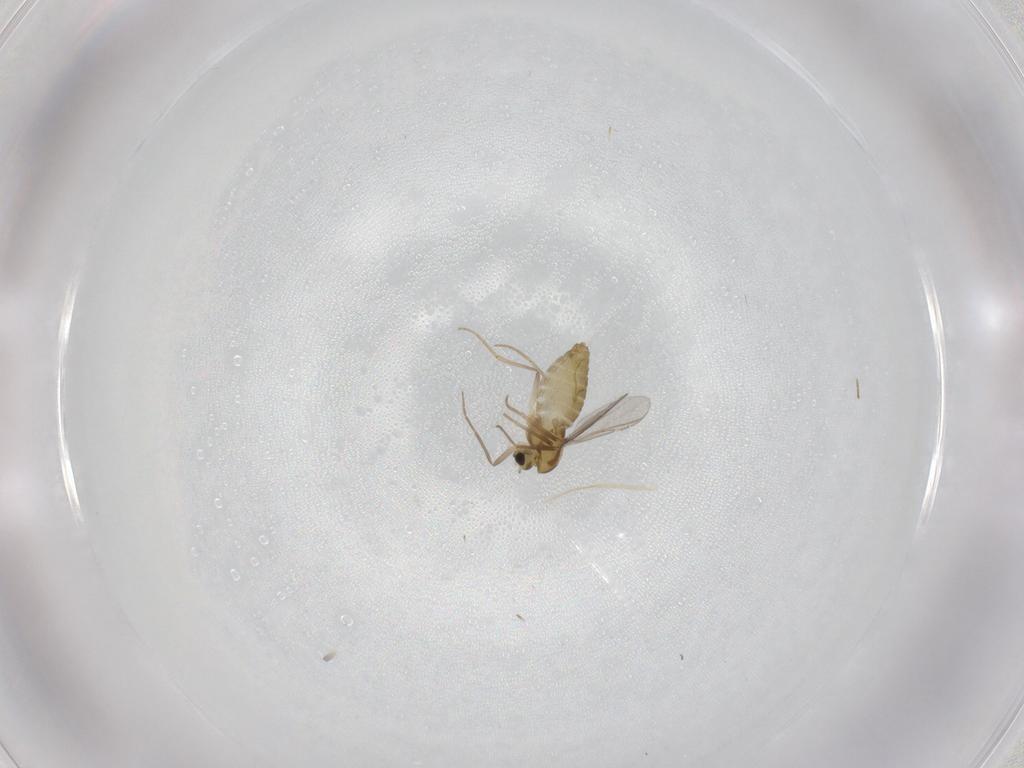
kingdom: Animalia
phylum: Arthropoda
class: Insecta
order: Diptera
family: Chironomidae
